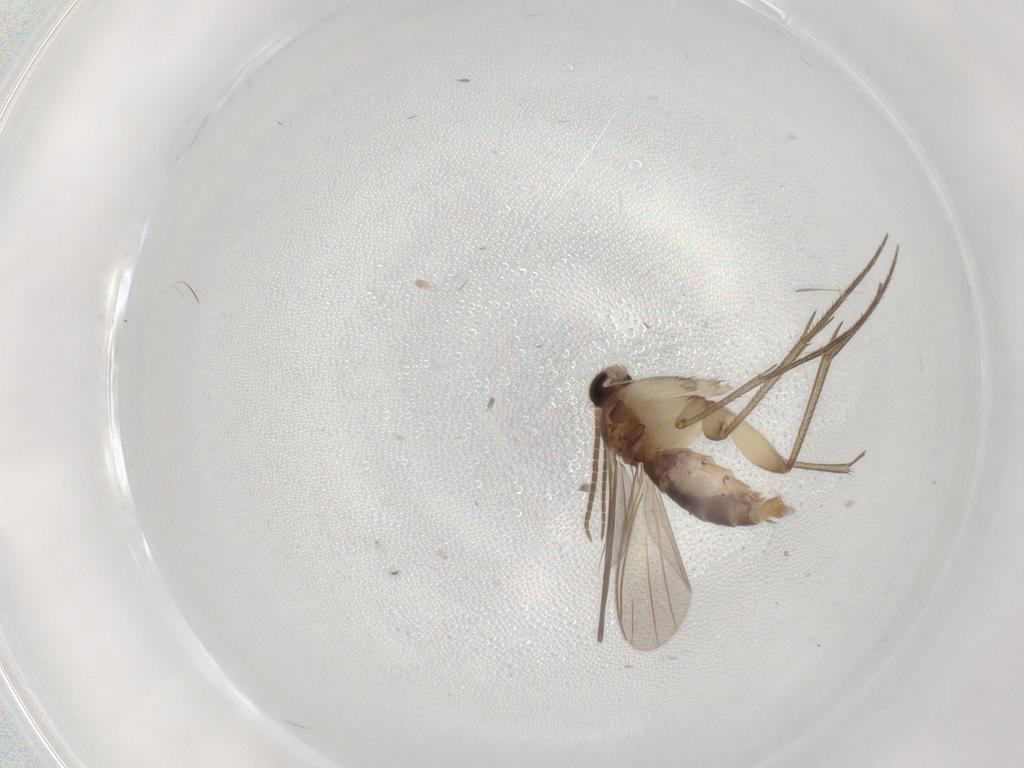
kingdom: Animalia
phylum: Arthropoda
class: Insecta
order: Diptera
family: Mycetophilidae
